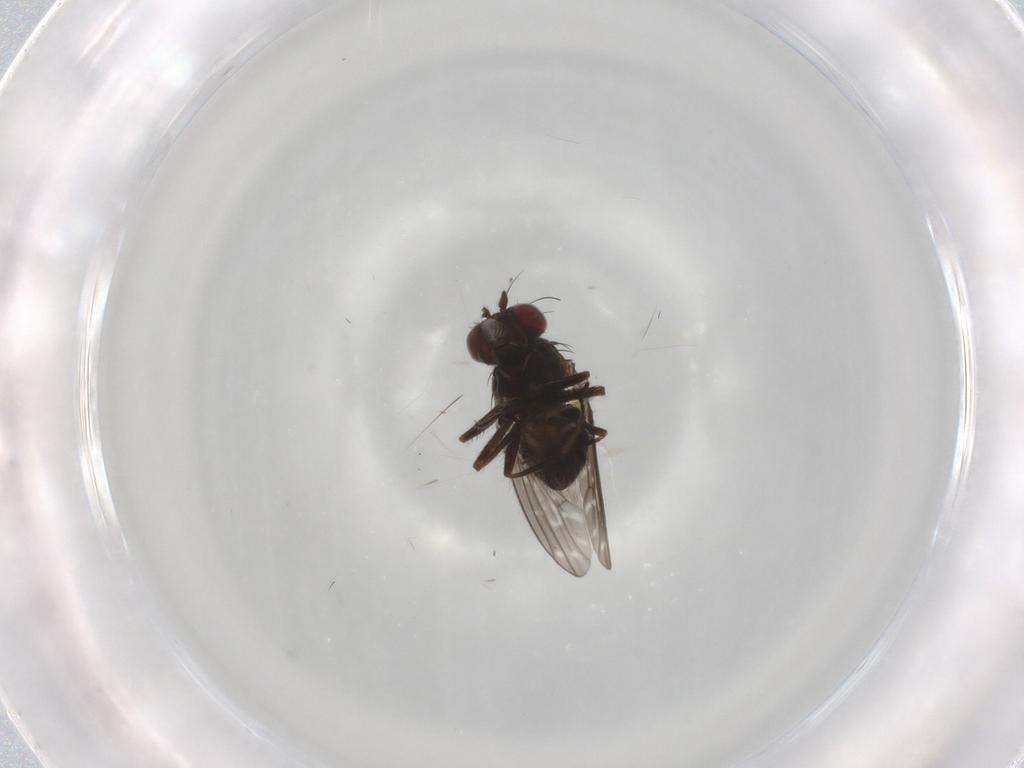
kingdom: Animalia
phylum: Arthropoda
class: Insecta
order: Diptera
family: Ephydridae
